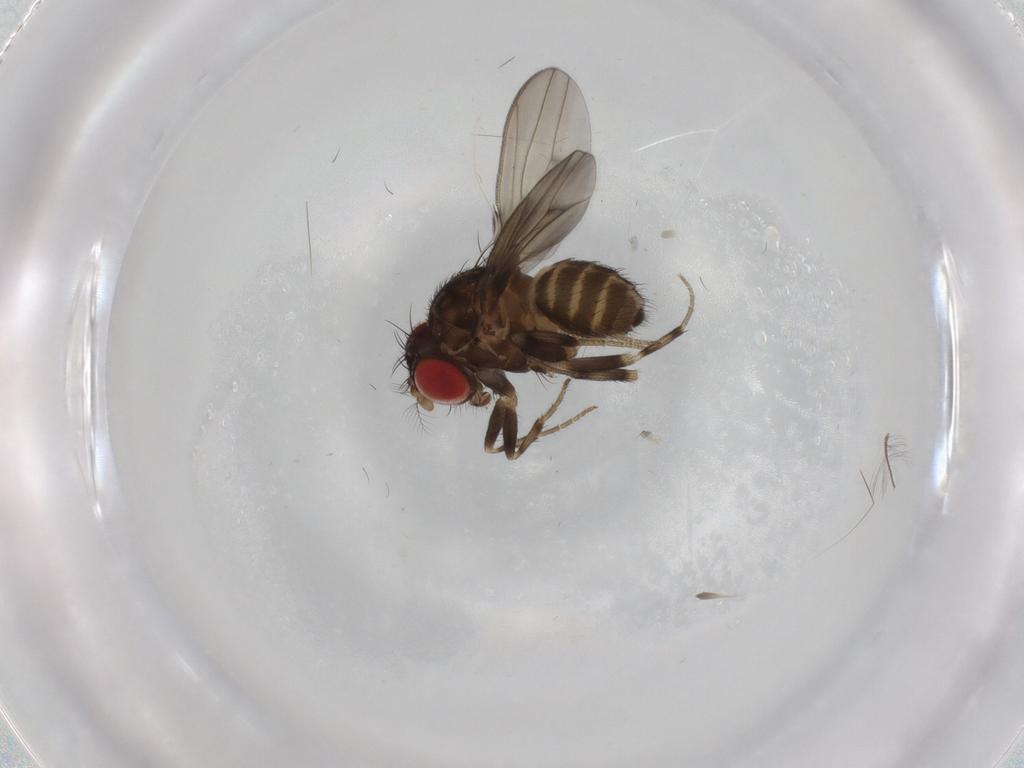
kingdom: Animalia
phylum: Arthropoda
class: Insecta
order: Diptera
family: Drosophilidae
